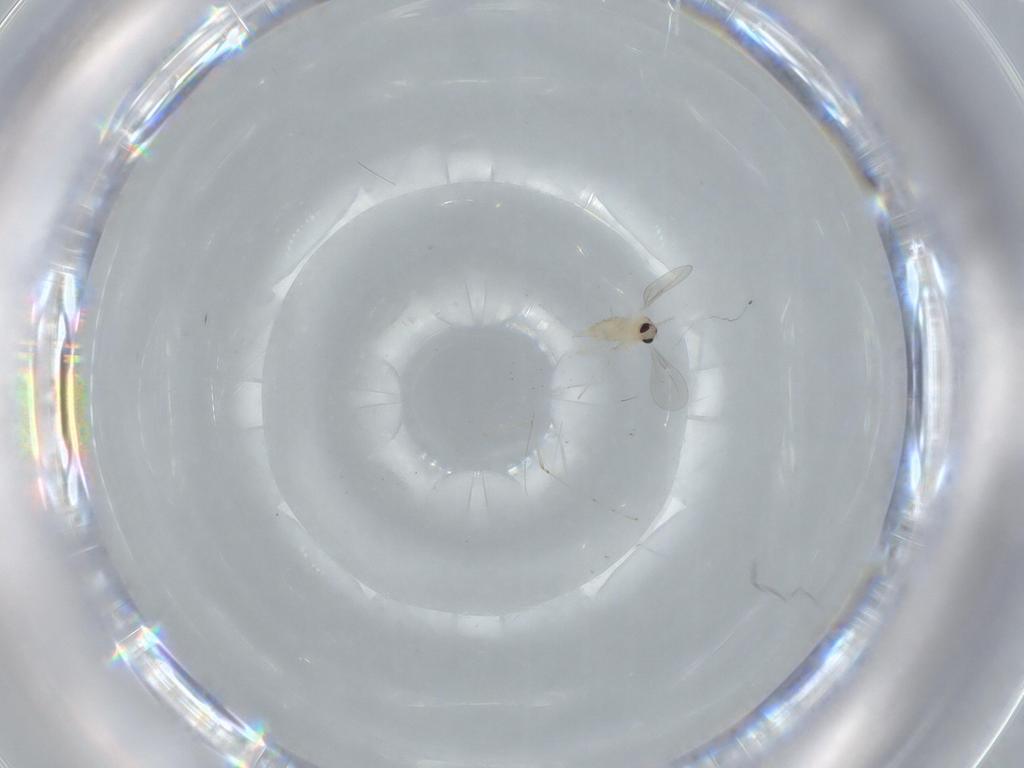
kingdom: Animalia
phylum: Arthropoda
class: Insecta
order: Diptera
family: Cecidomyiidae
